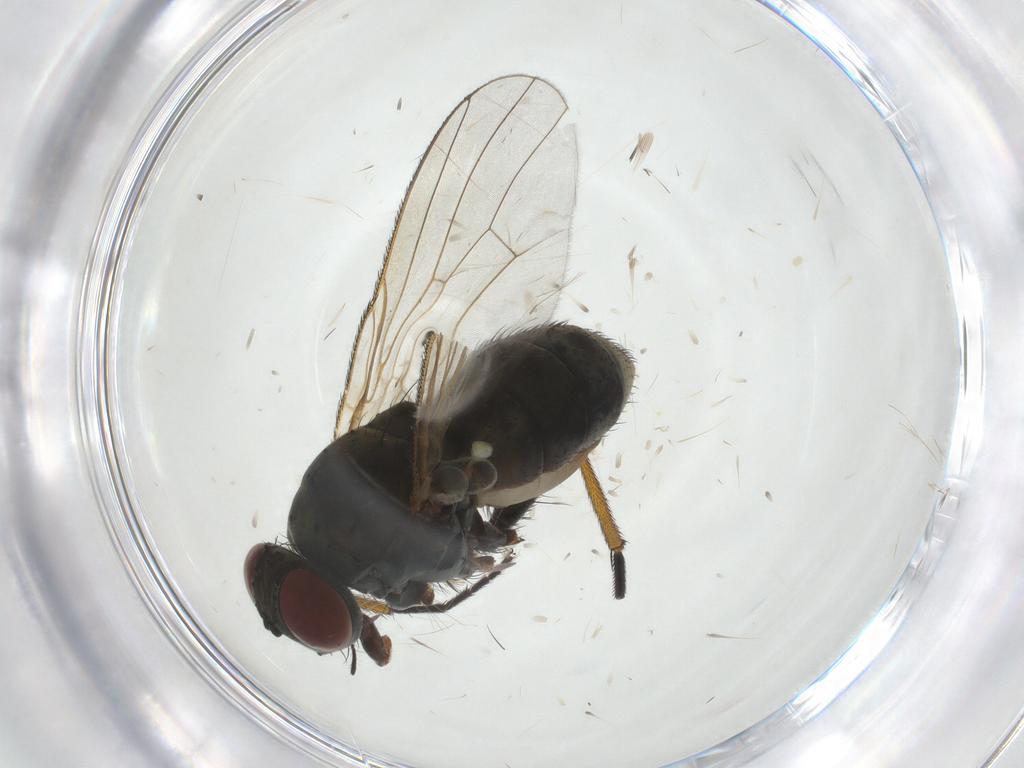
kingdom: Animalia
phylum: Arthropoda
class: Insecta
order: Diptera
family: Muscidae
